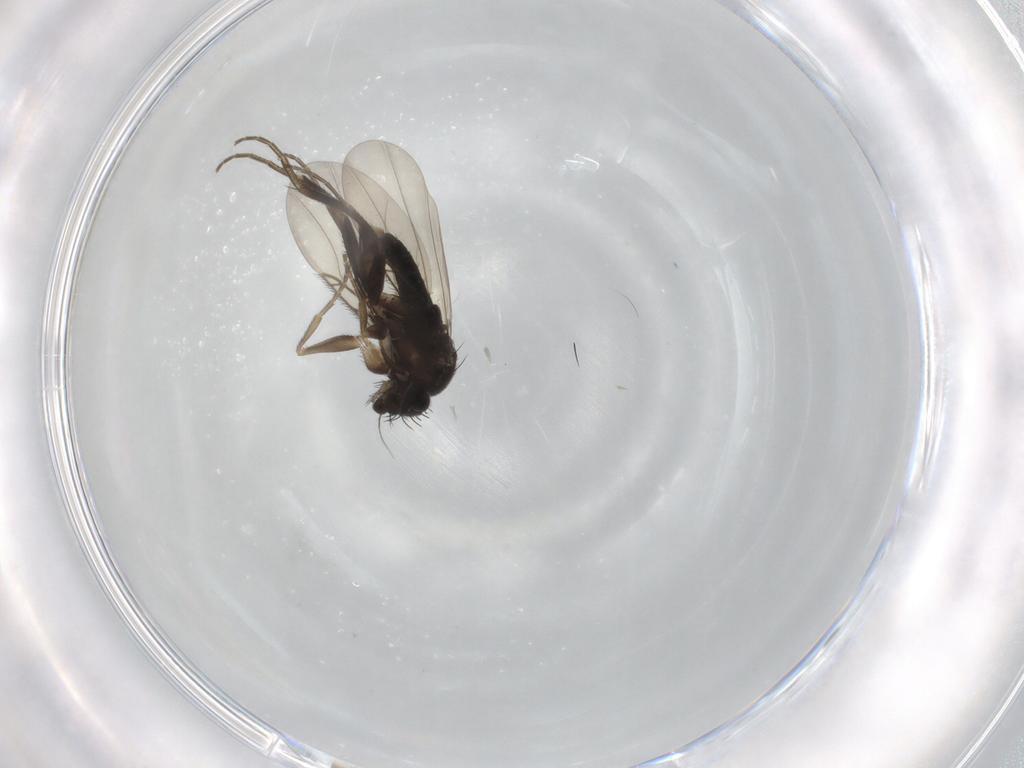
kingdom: Animalia
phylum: Arthropoda
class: Insecta
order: Diptera
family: Phoridae
